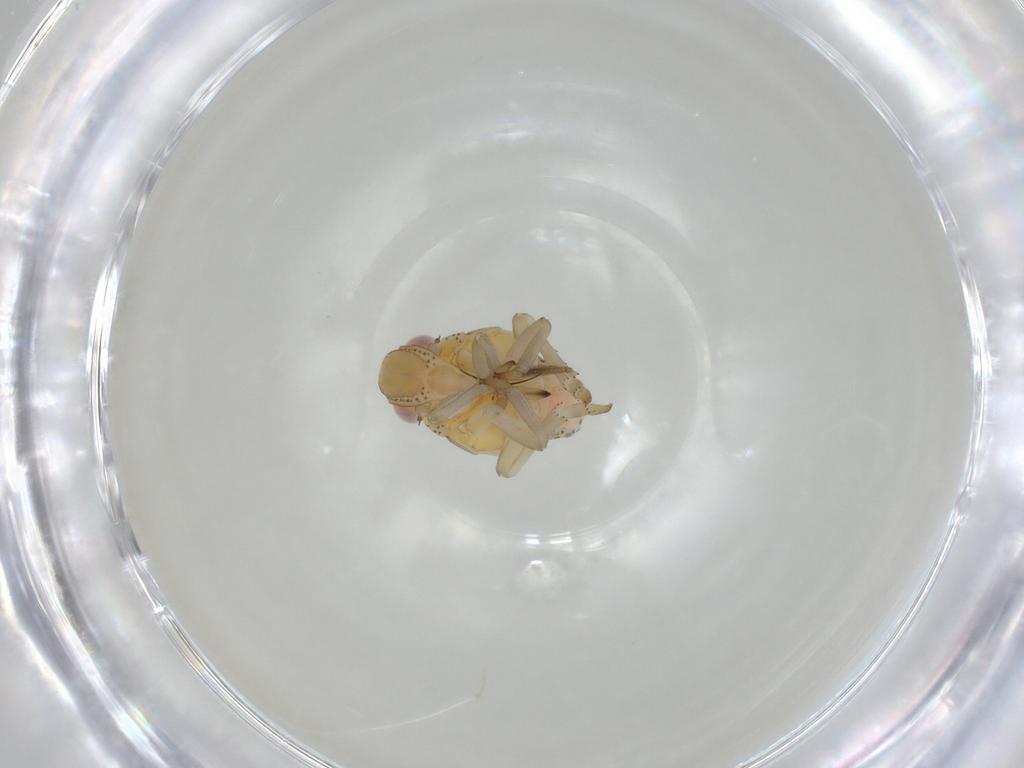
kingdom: Animalia
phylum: Arthropoda
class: Insecta
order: Hemiptera
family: Tropiduchidae
